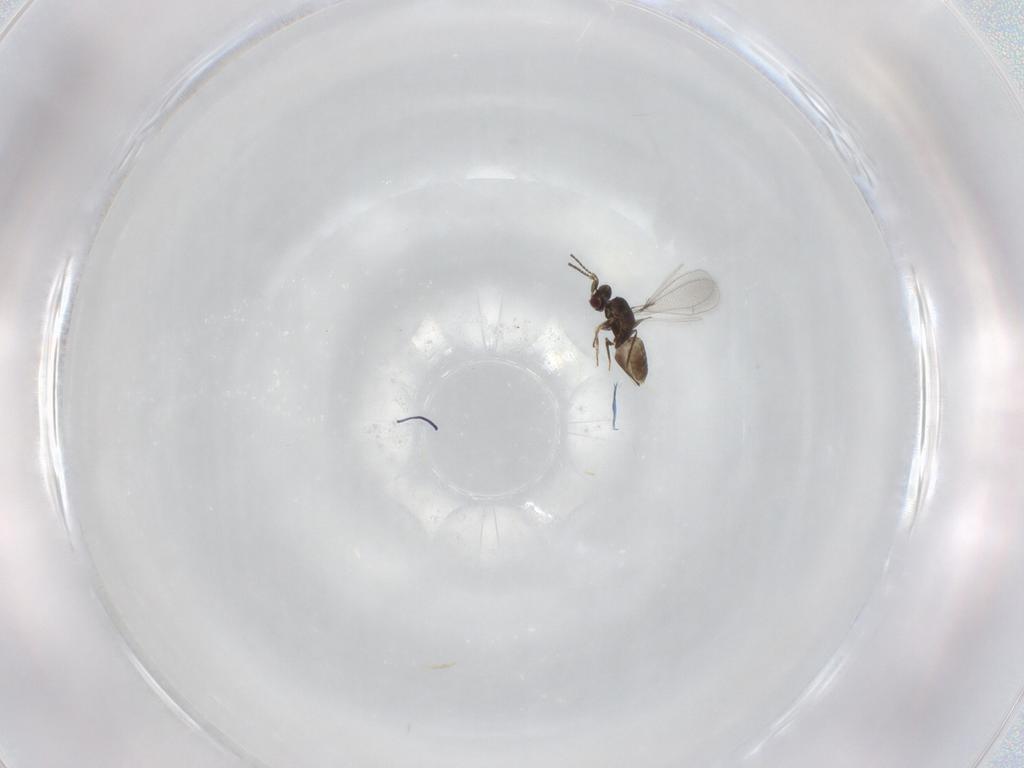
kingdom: Animalia
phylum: Arthropoda
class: Insecta
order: Hymenoptera
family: Mymaridae
